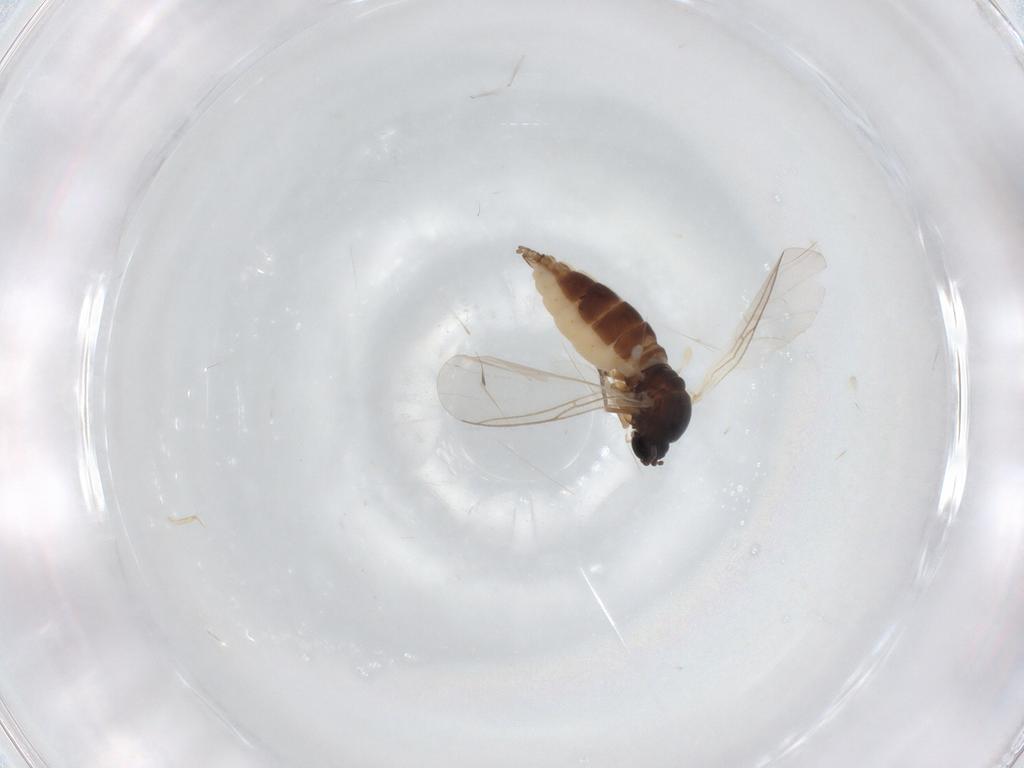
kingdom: Animalia
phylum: Arthropoda
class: Insecta
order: Diptera
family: Sciaridae
